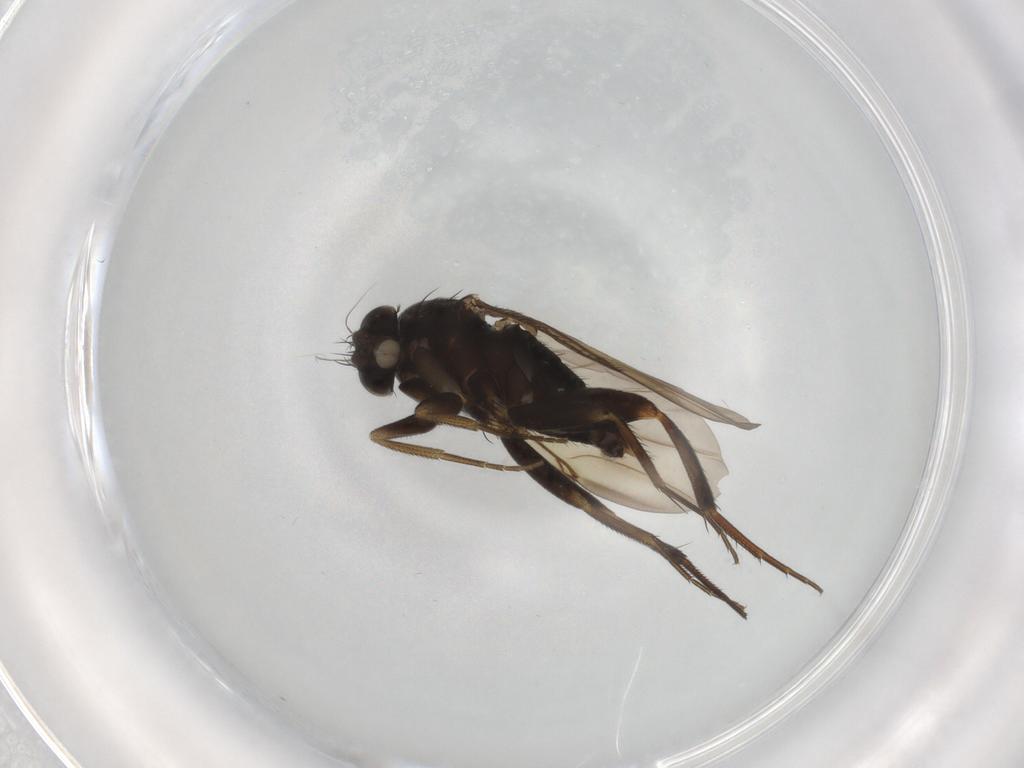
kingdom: Animalia
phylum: Arthropoda
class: Insecta
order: Diptera
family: Phoridae
